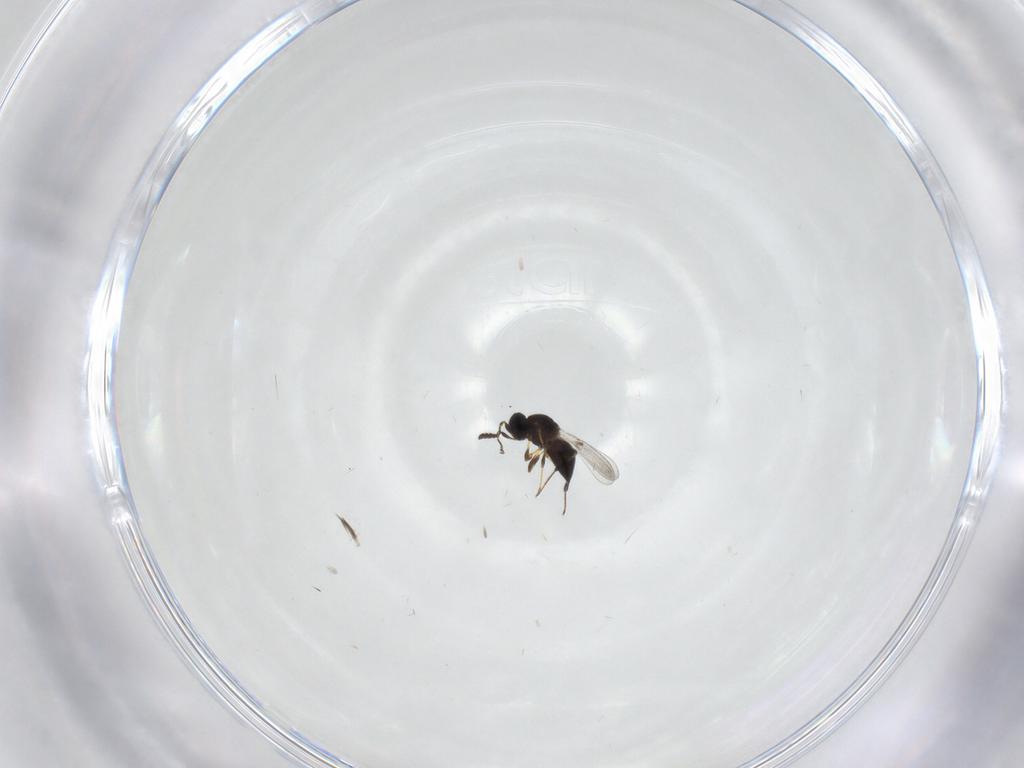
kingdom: Animalia
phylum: Arthropoda
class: Insecta
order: Hymenoptera
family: Platygastridae
